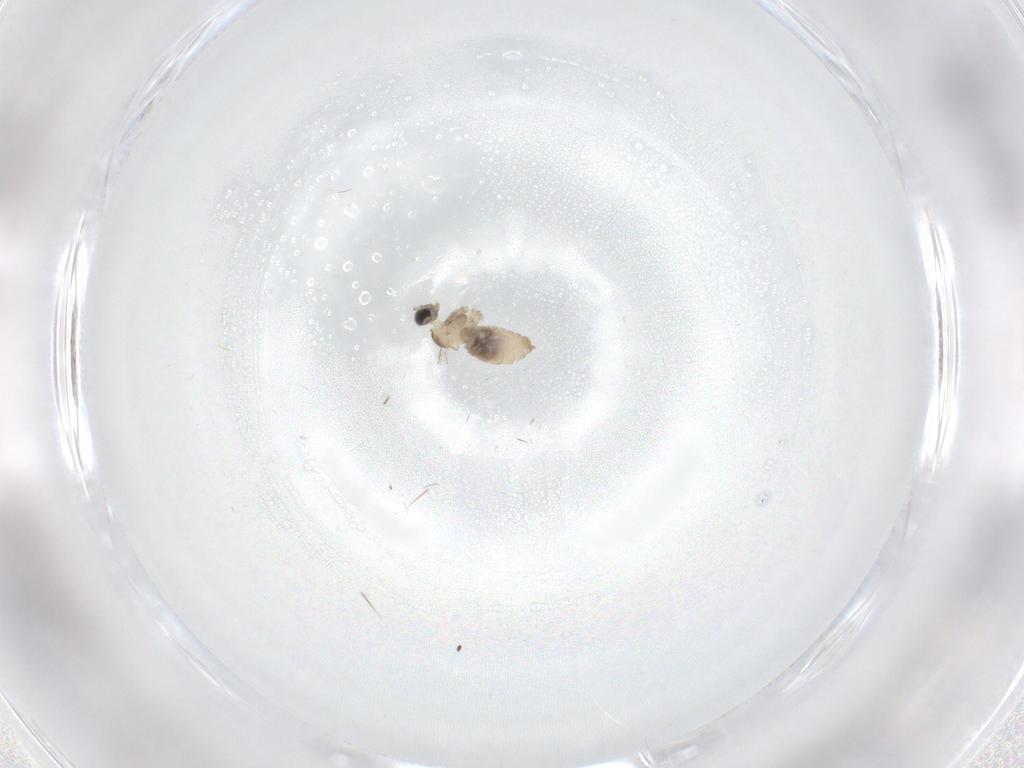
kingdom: Animalia
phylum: Arthropoda
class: Insecta
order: Diptera
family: Cecidomyiidae
